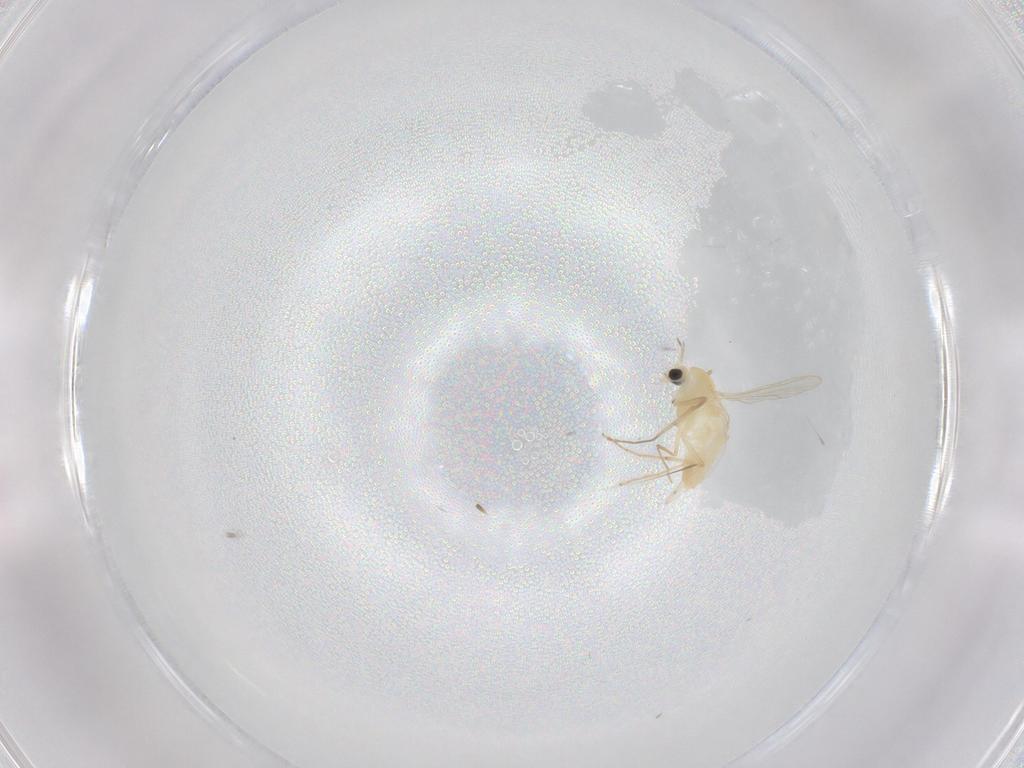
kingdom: Animalia
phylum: Arthropoda
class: Insecta
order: Diptera
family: Chironomidae
